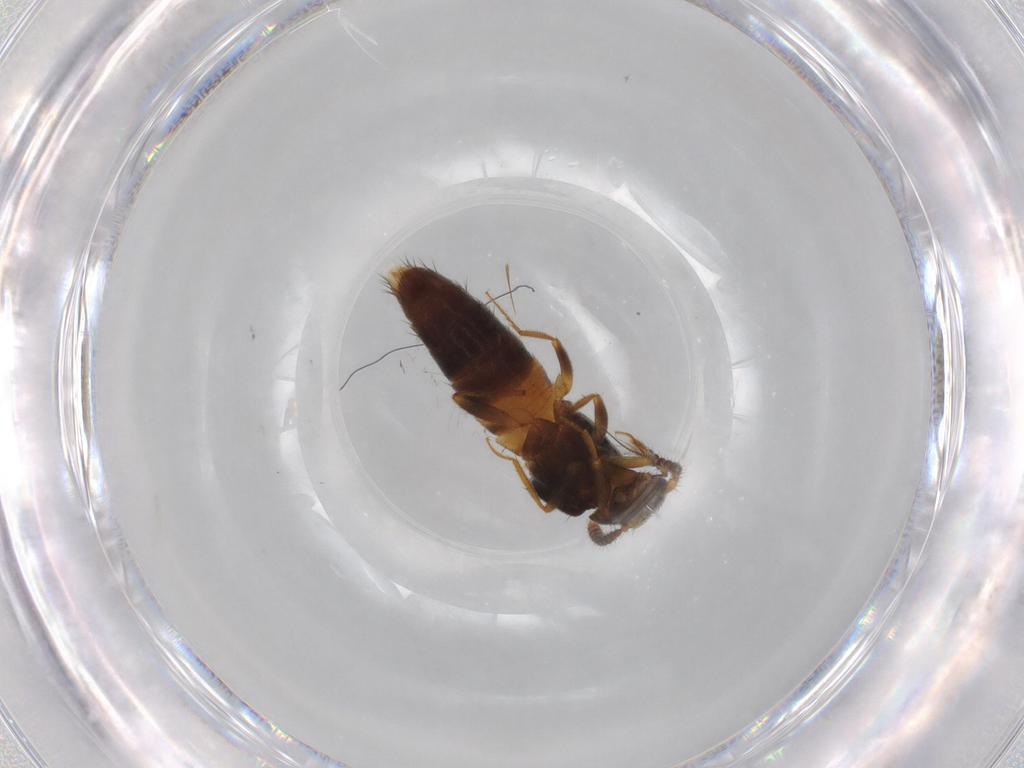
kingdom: Animalia
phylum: Arthropoda
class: Insecta
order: Coleoptera
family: Staphylinidae
